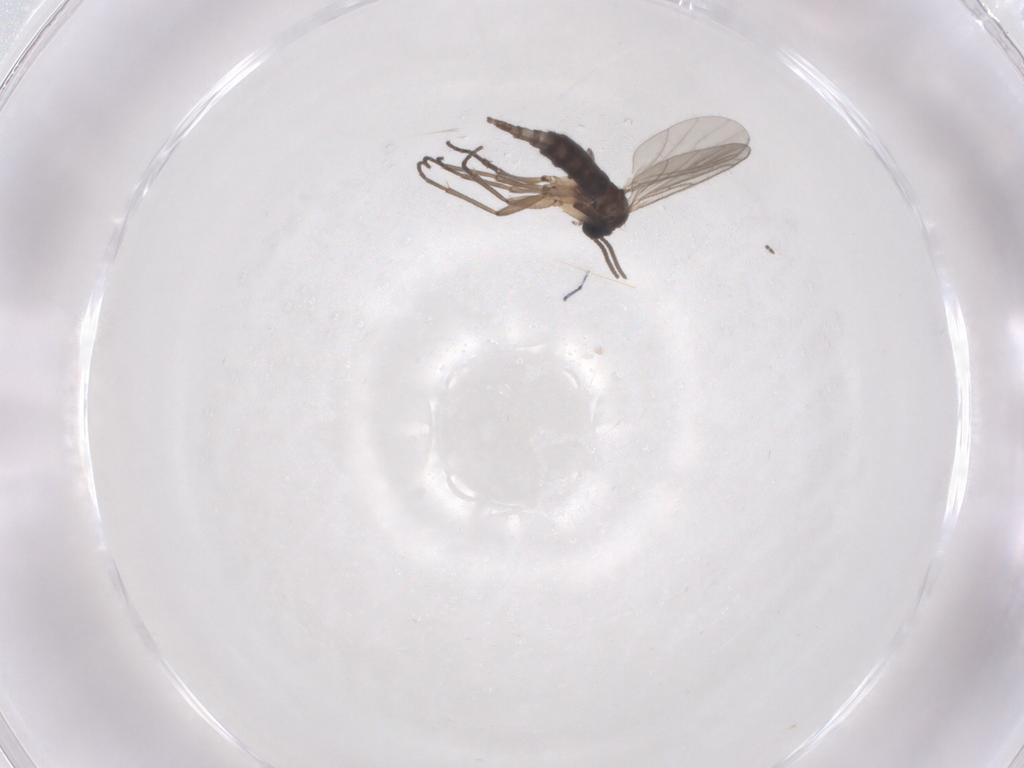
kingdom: Animalia
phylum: Arthropoda
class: Insecta
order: Diptera
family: Sciaridae
